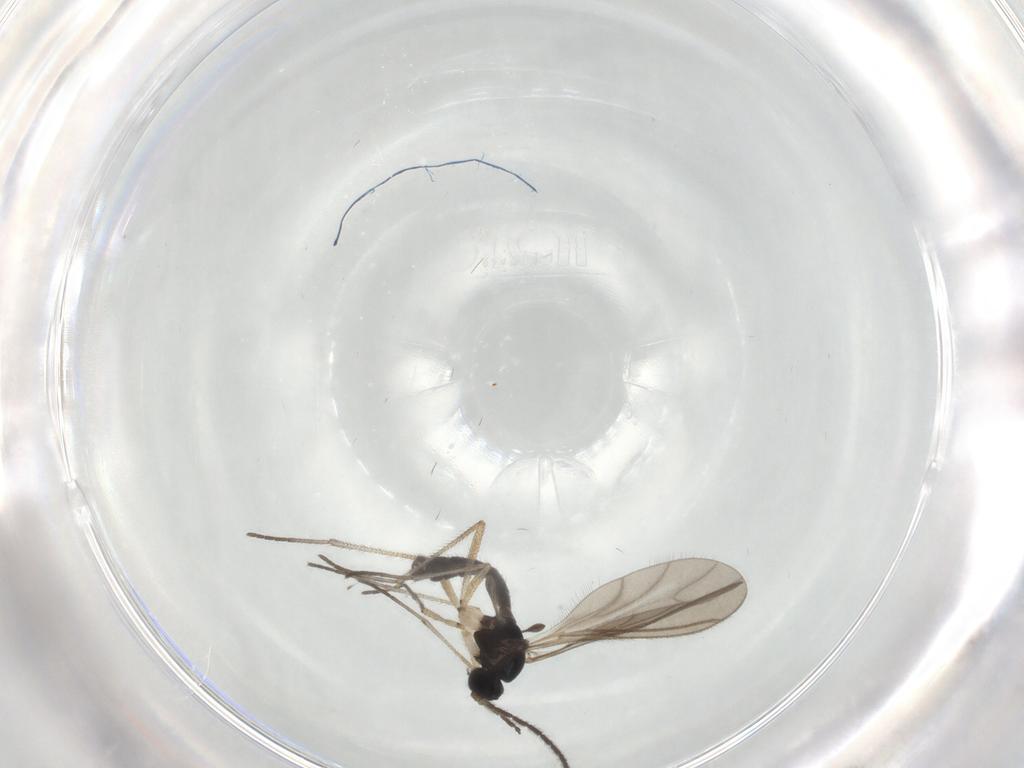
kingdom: Animalia
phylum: Arthropoda
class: Insecta
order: Diptera
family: Sciaridae
